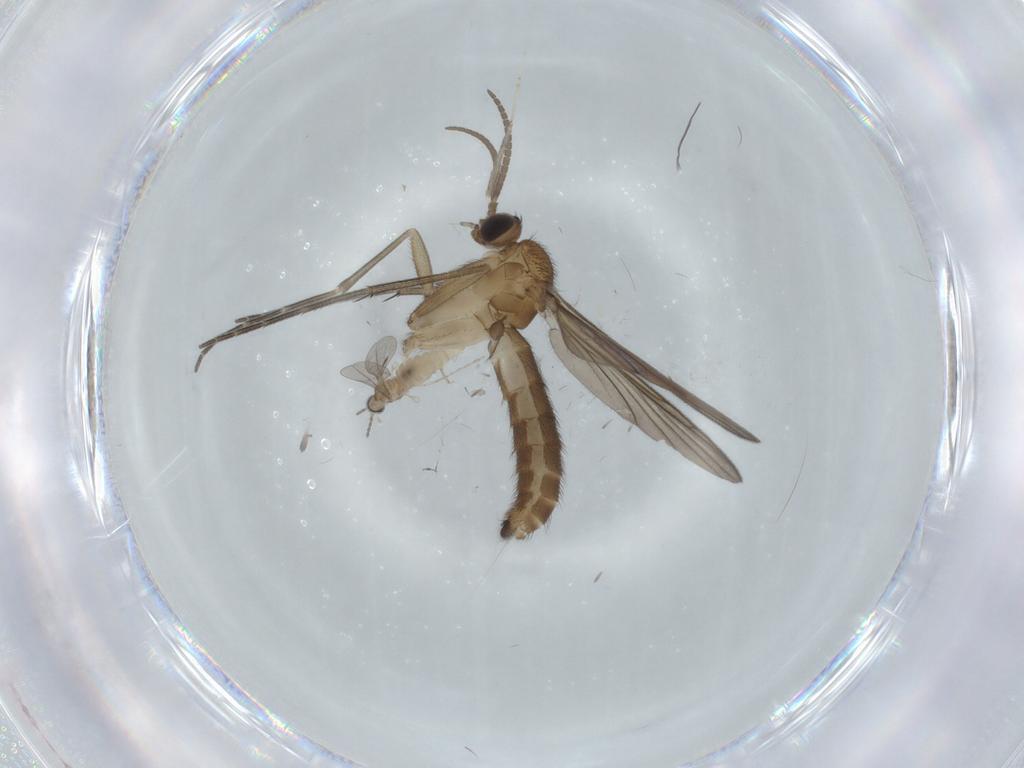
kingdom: Animalia
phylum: Arthropoda
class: Insecta
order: Diptera
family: Keroplatidae
